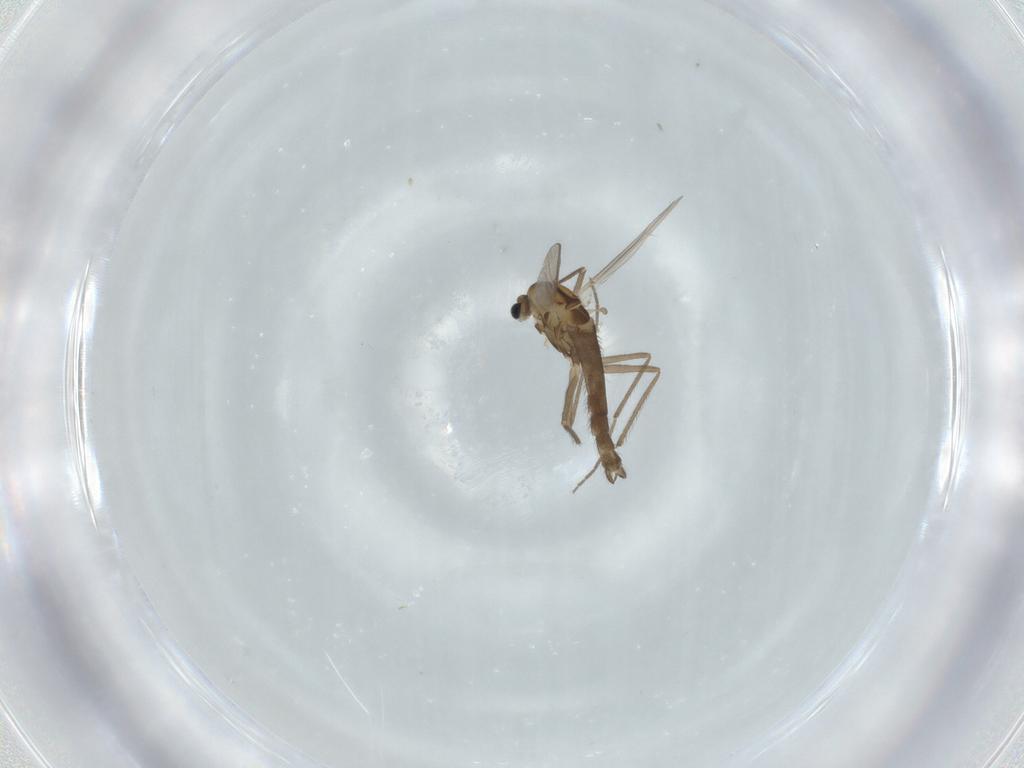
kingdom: Animalia
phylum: Arthropoda
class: Insecta
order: Diptera
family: Chironomidae
